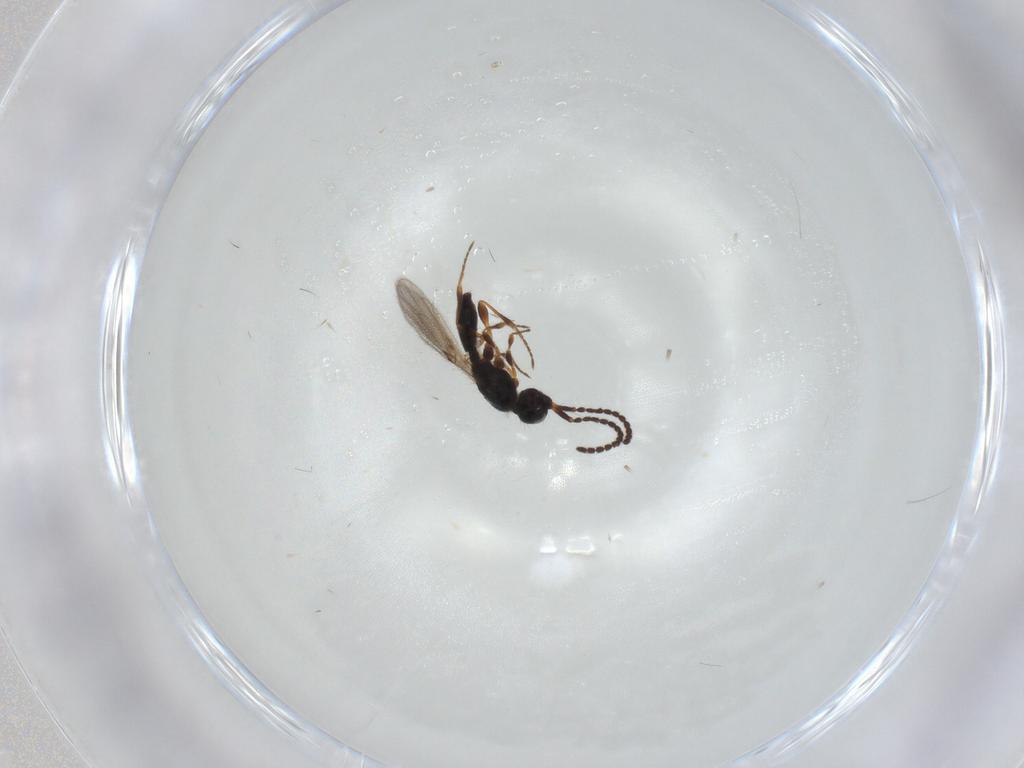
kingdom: Animalia
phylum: Arthropoda
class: Insecta
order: Hymenoptera
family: Diapriidae
